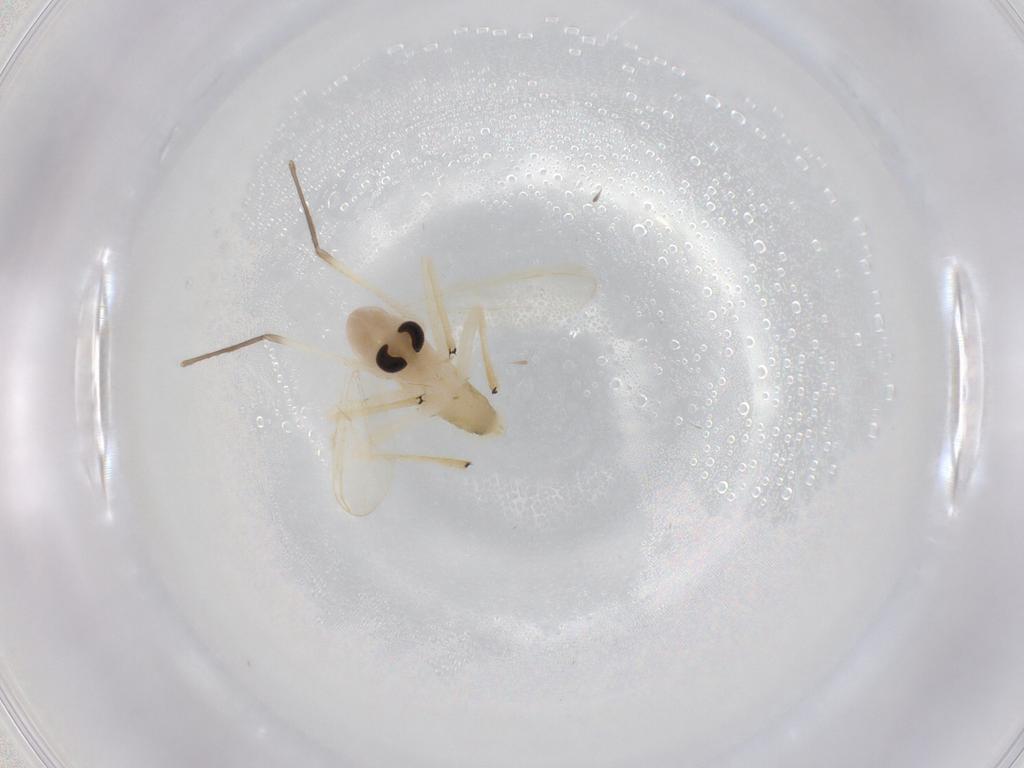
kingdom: Animalia
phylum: Arthropoda
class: Insecta
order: Diptera
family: Chironomidae
